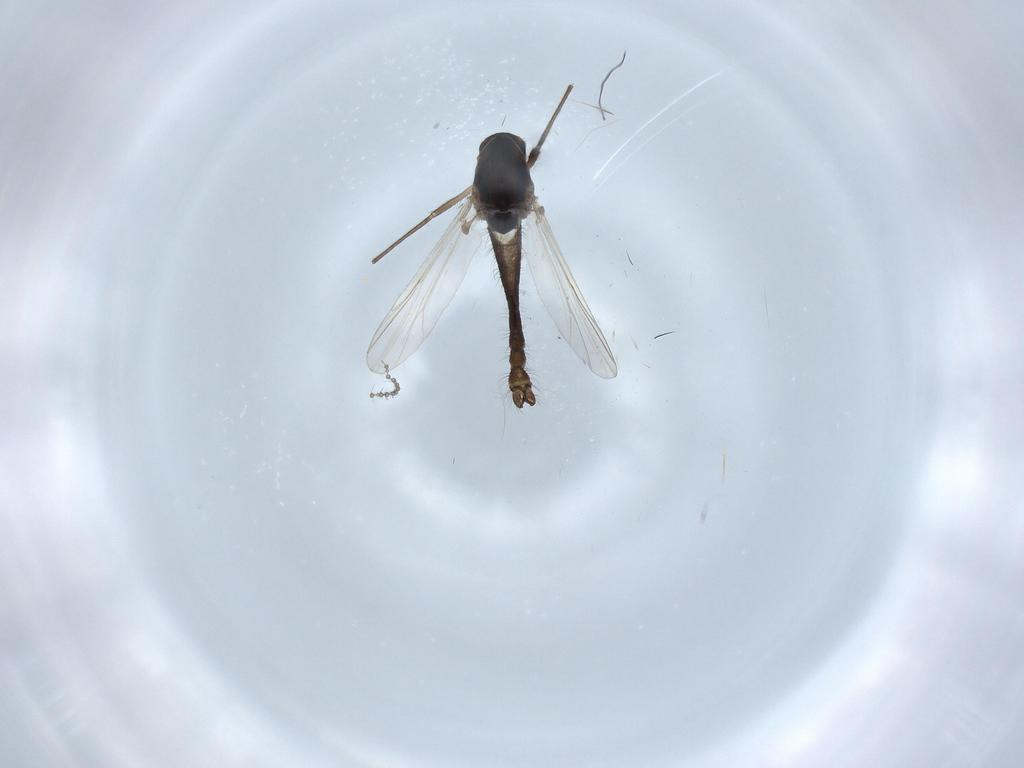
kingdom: Animalia
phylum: Arthropoda
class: Insecta
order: Diptera
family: Chironomidae
